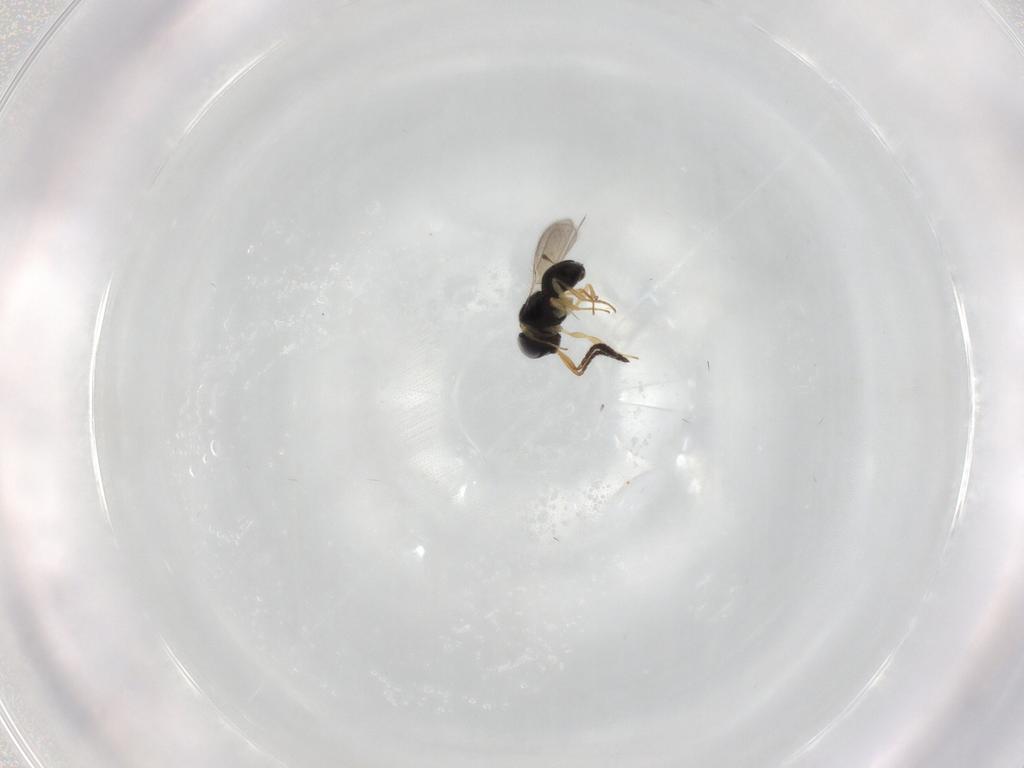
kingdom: Animalia
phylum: Arthropoda
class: Insecta
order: Hymenoptera
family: Scelionidae
